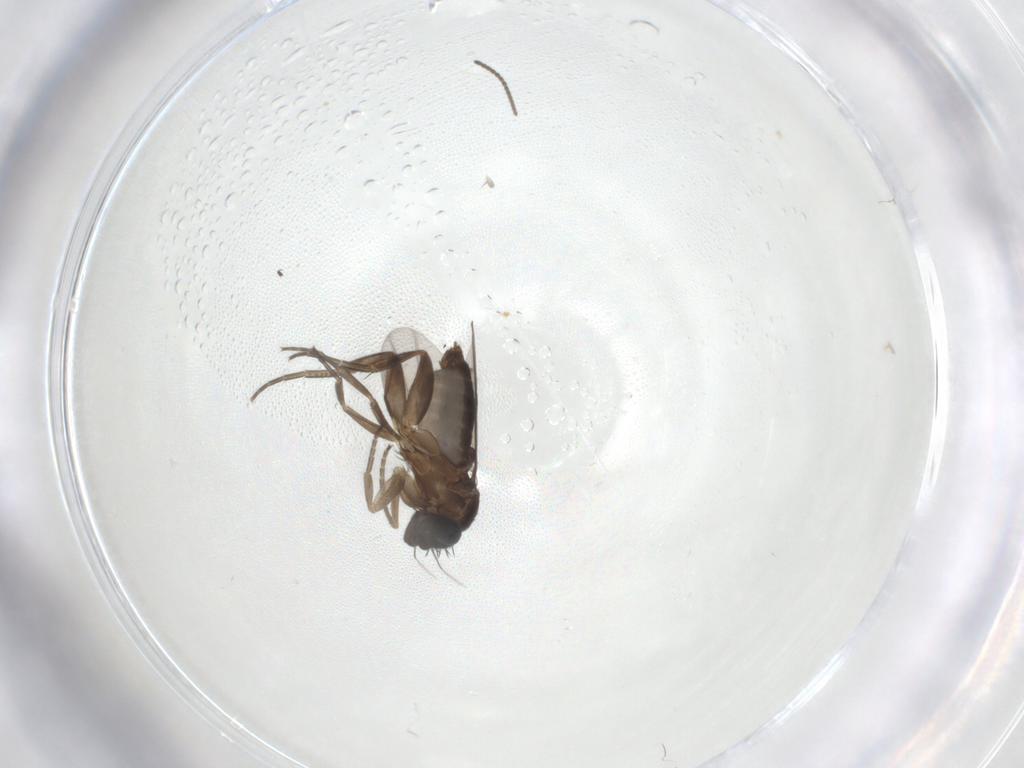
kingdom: Animalia
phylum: Arthropoda
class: Insecta
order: Diptera
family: Phoridae
